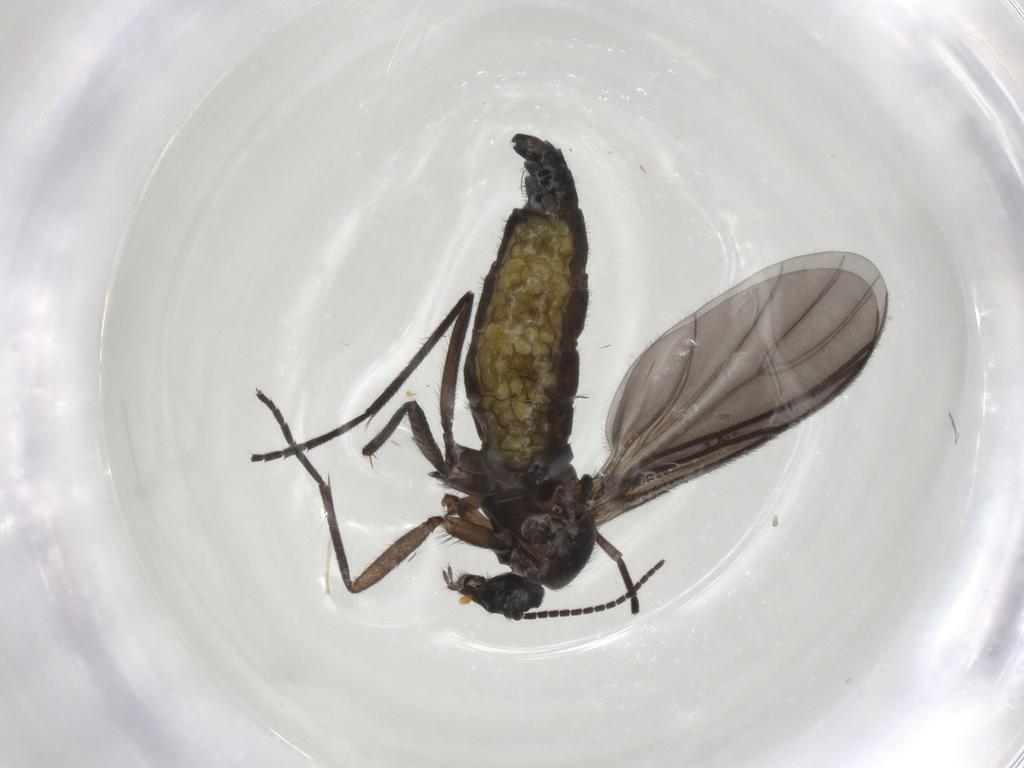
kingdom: Animalia
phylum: Arthropoda
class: Insecta
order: Diptera
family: Sciaridae
